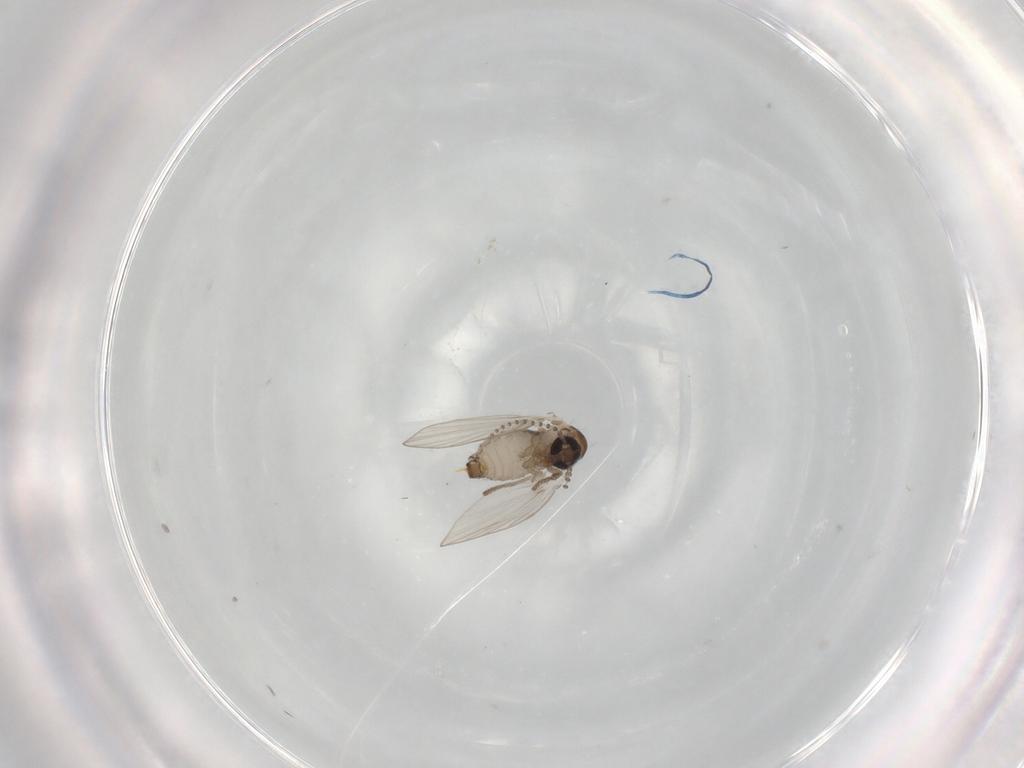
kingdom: Animalia
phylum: Arthropoda
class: Insecta
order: Diptera
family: Psychodidae
